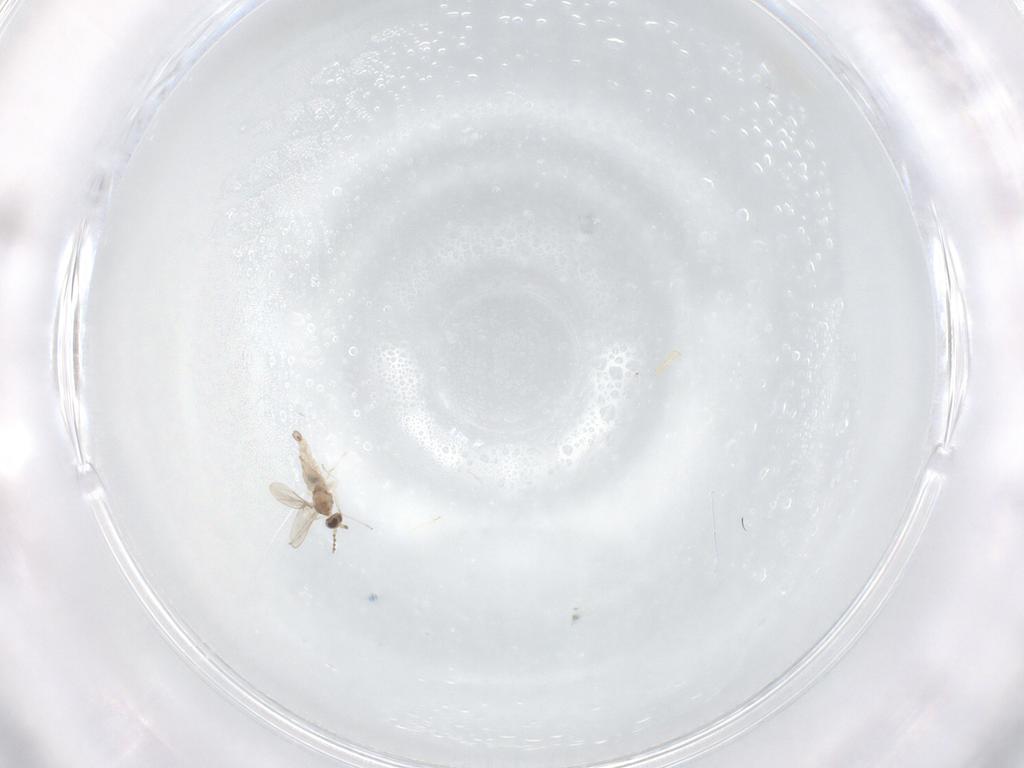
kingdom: Animalia
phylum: Arthropoda
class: Insecta
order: Diptera
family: Cecidomyiidae
